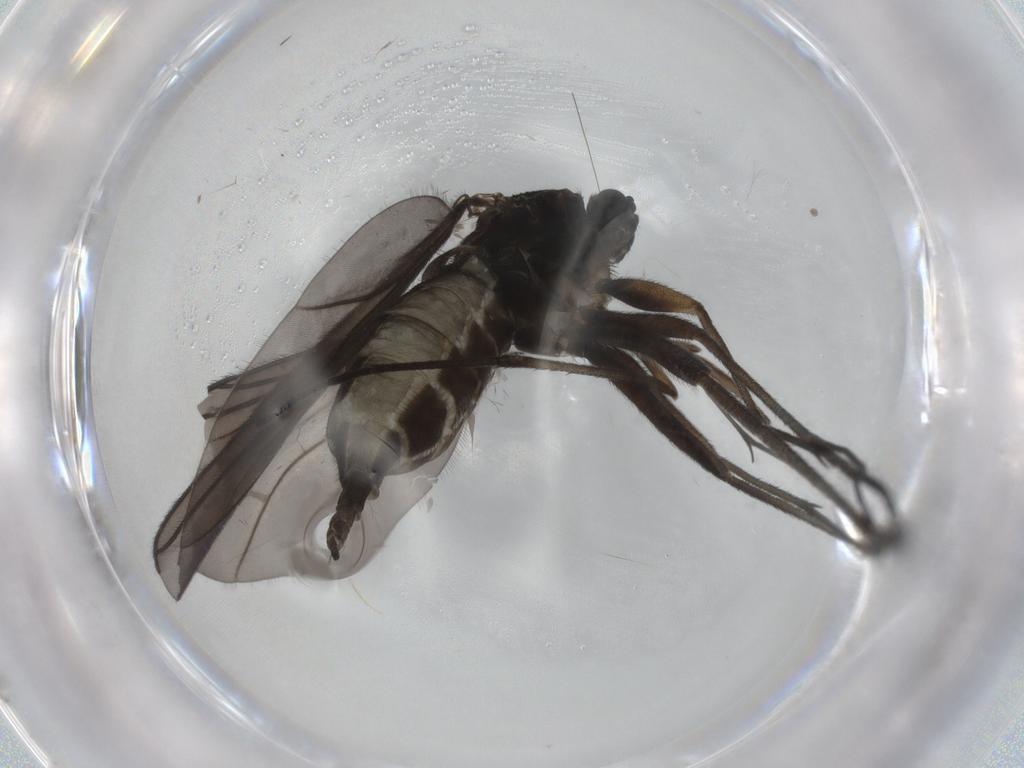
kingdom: Animalia
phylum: Arthropoda
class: Insecta
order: Diptera
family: Sciaridae
